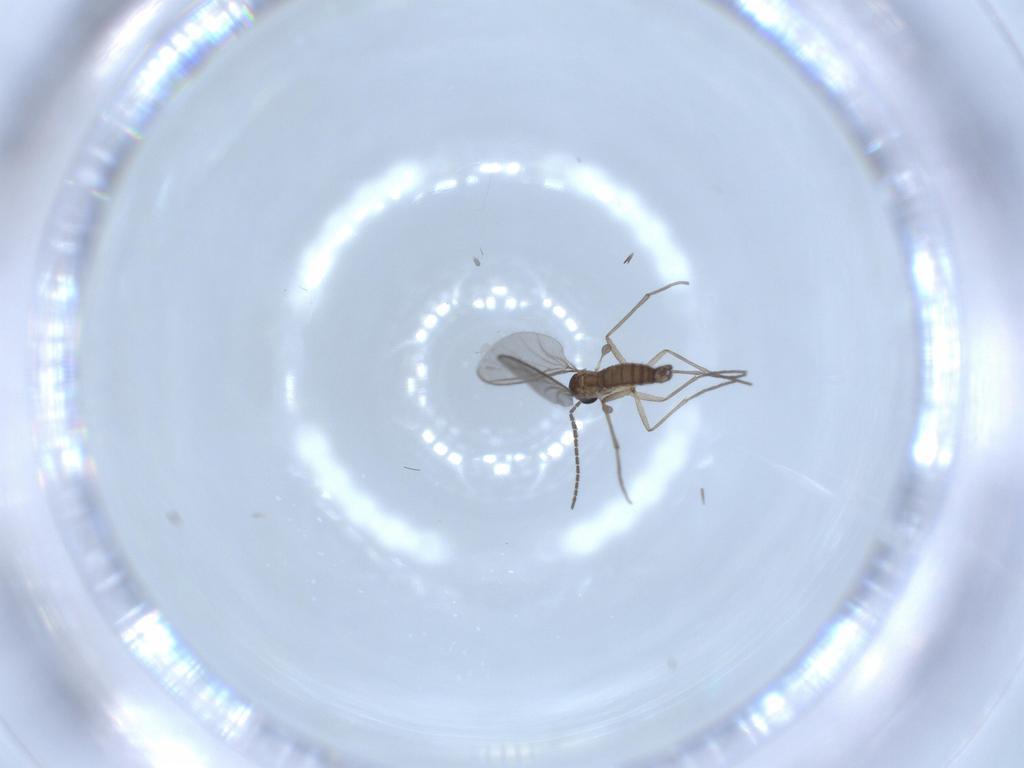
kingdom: Animalia
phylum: Arthropoda
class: Insecta
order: Diptera
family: Sciaridae
